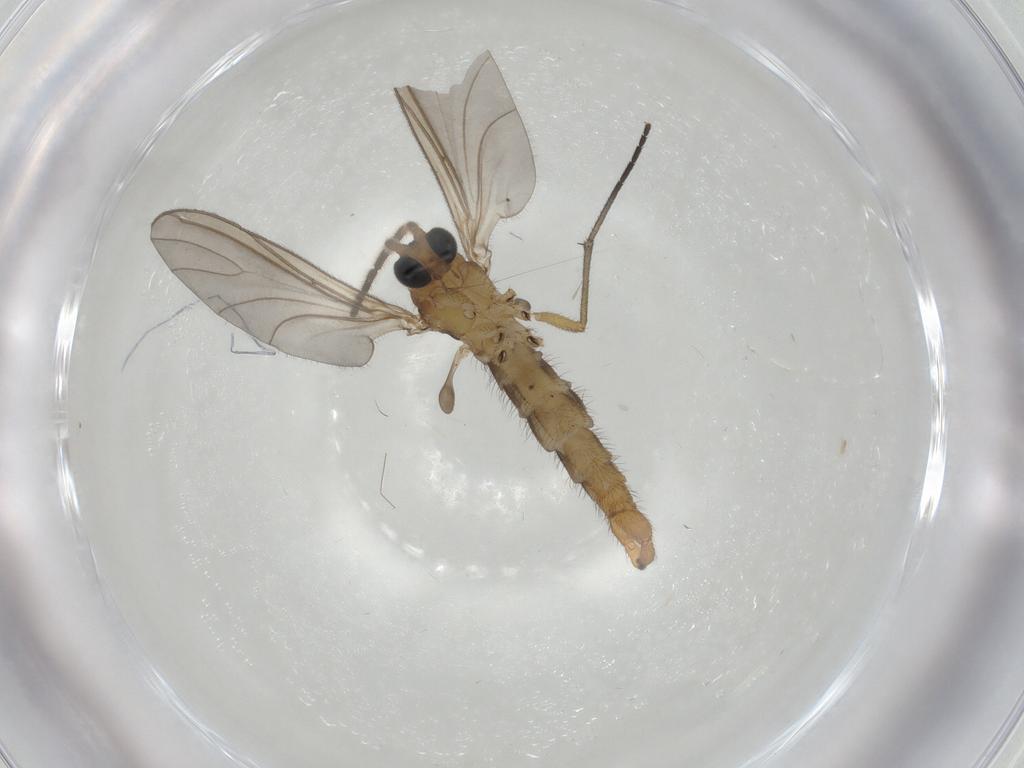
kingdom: Animalia
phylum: Arthropoda
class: Insecta
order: Diptera
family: Sciaridae
